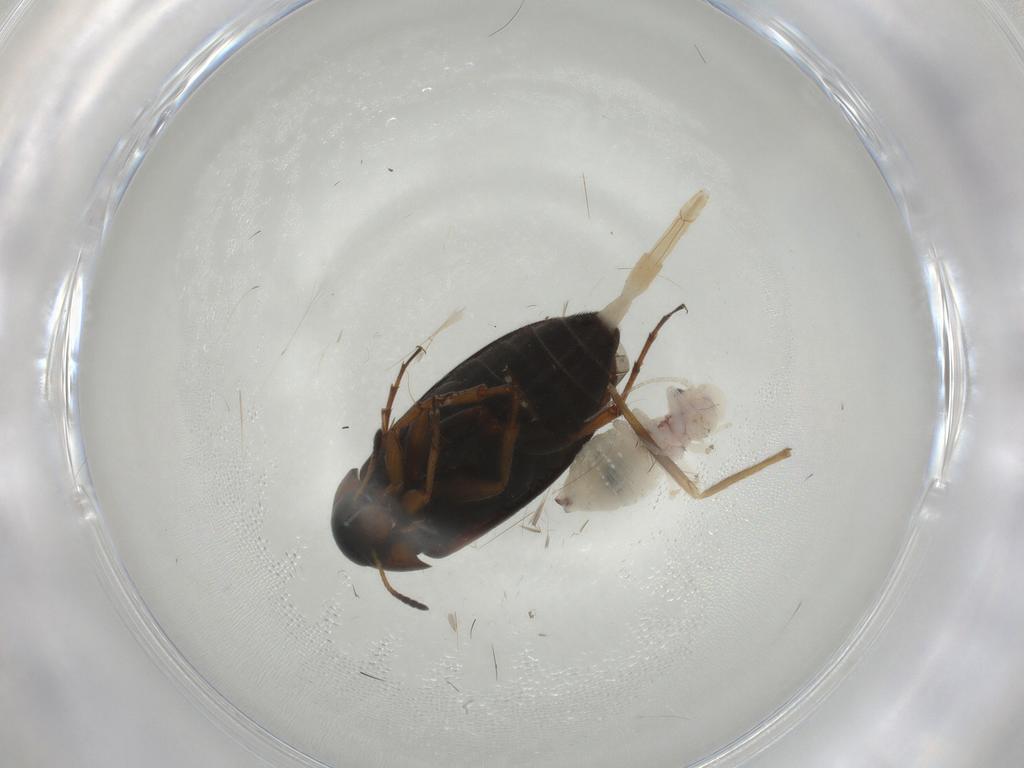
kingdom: Animalia
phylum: Arthropoda
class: Insecta
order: Coleoptera
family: Scraptiidae
